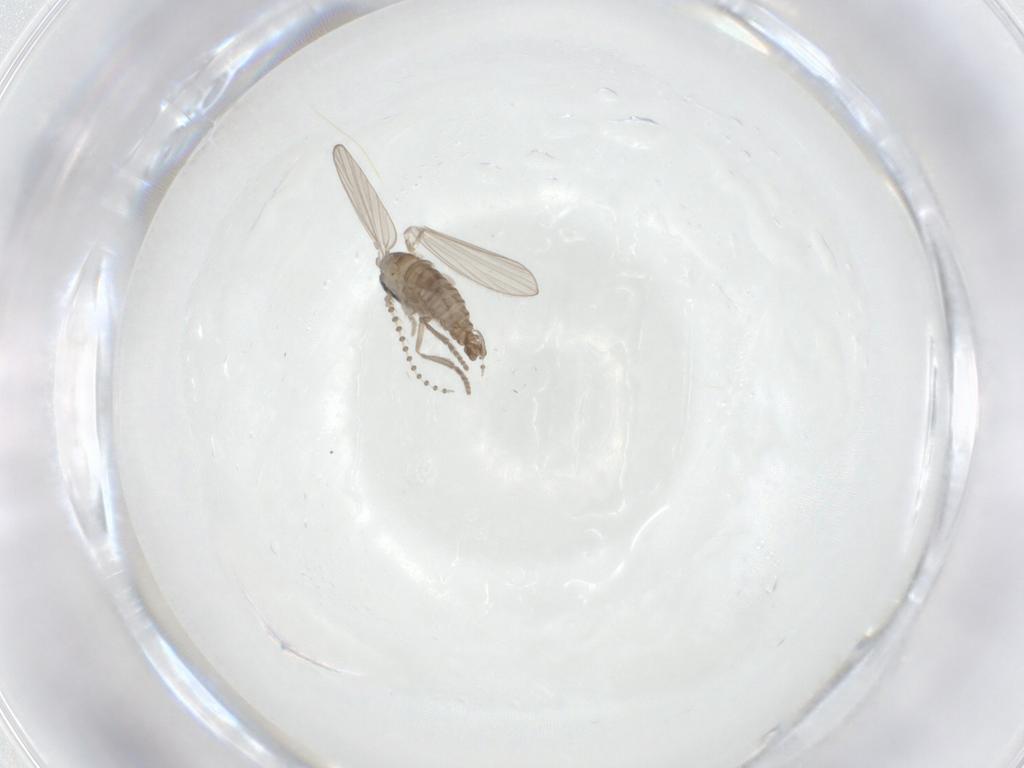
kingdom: Animalia
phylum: Arthropoda
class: Insecta
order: Diptera
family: Psychodidae
